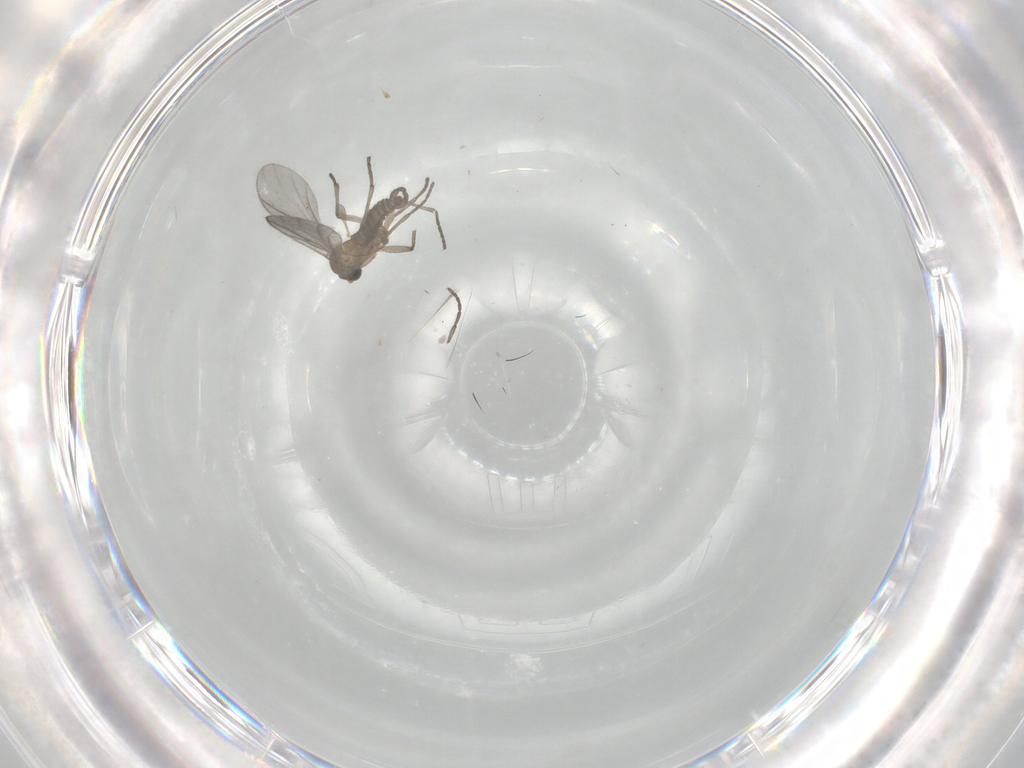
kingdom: Animalia
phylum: Arthropoda
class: Insecta
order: Diptera
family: Sciaridae
